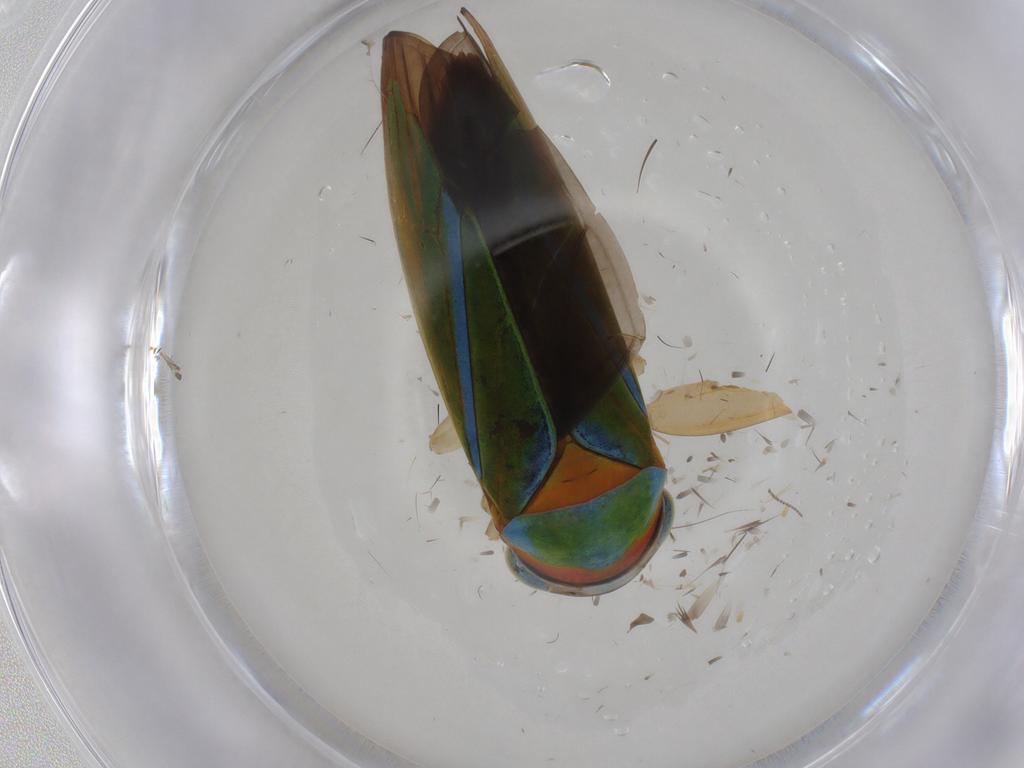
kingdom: Animalia
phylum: Arthropoda
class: Insecta
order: Hemiptera
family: Cicadellidae
